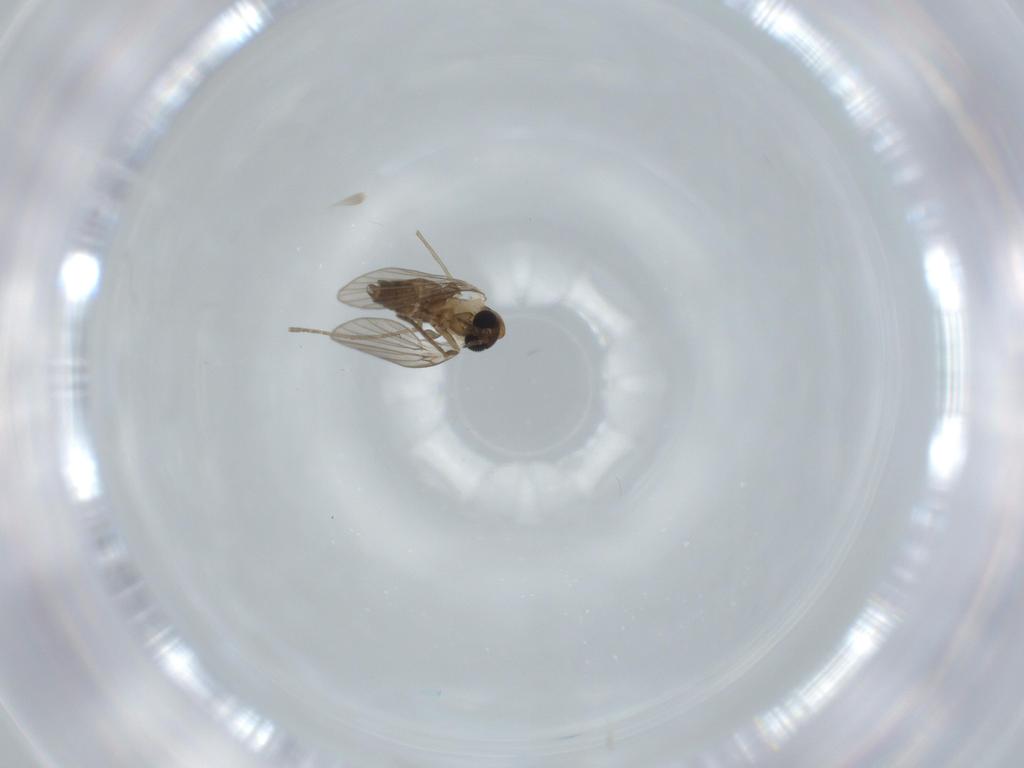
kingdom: Animalia
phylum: Arthropoda
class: Insecta
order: Diptera
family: Psychodidae
